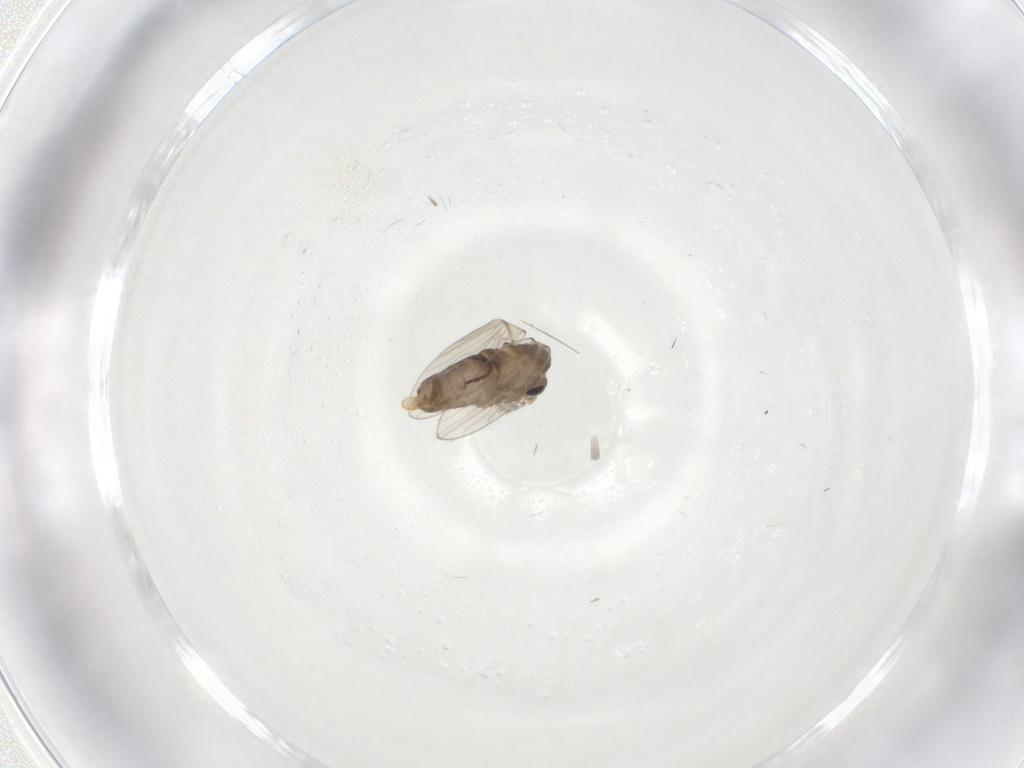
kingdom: Animalia
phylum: Arthropoda
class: Insecta
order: Diptera
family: Psychodidae
